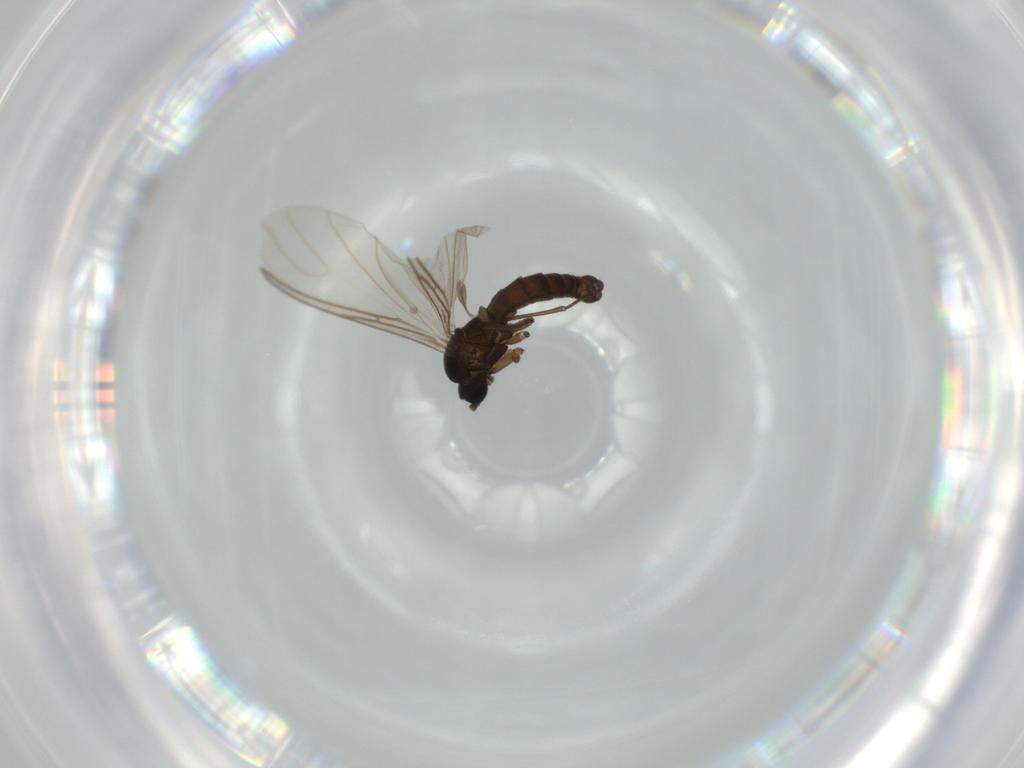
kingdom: Animalia
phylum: Arthropoda
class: Insecta
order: Diptera
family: Sciaridae
